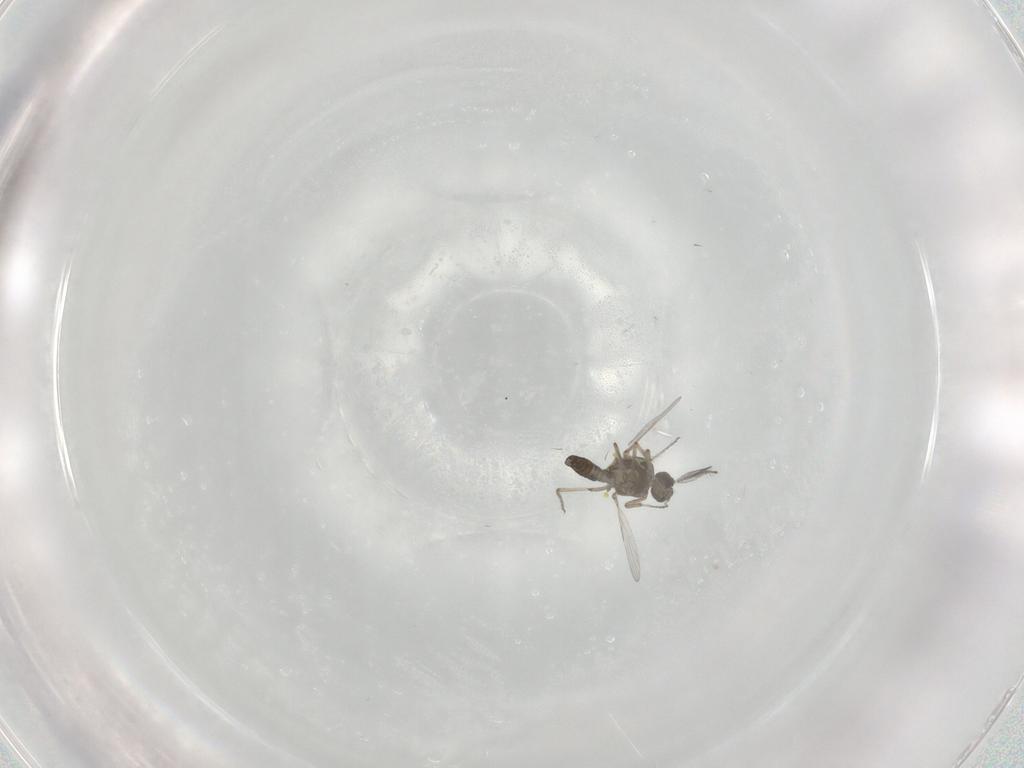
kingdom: Animalia
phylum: Arthropoda
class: Insecta
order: Diptera
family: Ceratopogonidae
